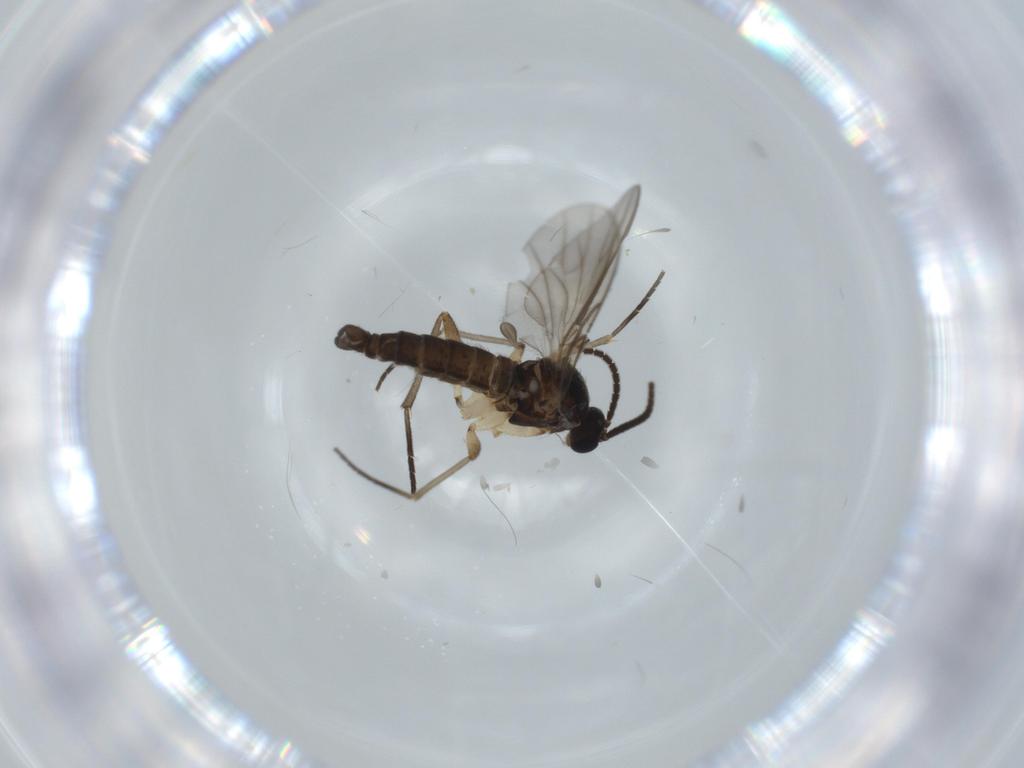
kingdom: Animalia
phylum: Arthropoda
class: Insecta
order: Diptera
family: Sciaridae
